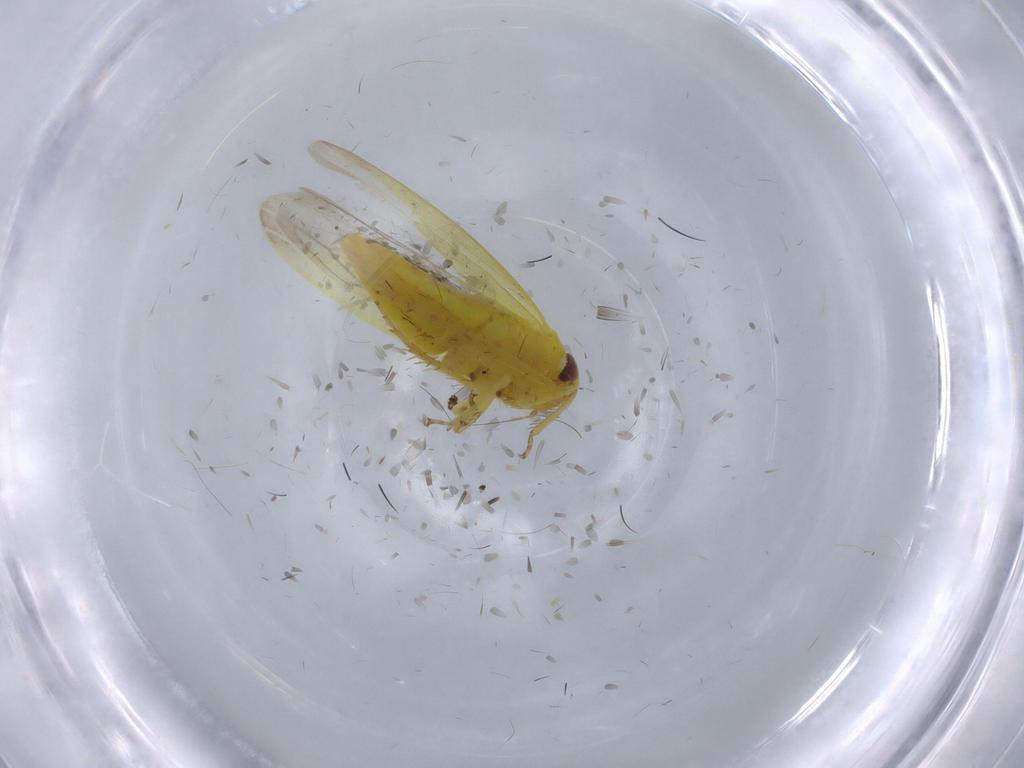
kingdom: Animalia
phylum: Arthropoda
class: Insecta
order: Hemiptera
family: Cicadellidae
